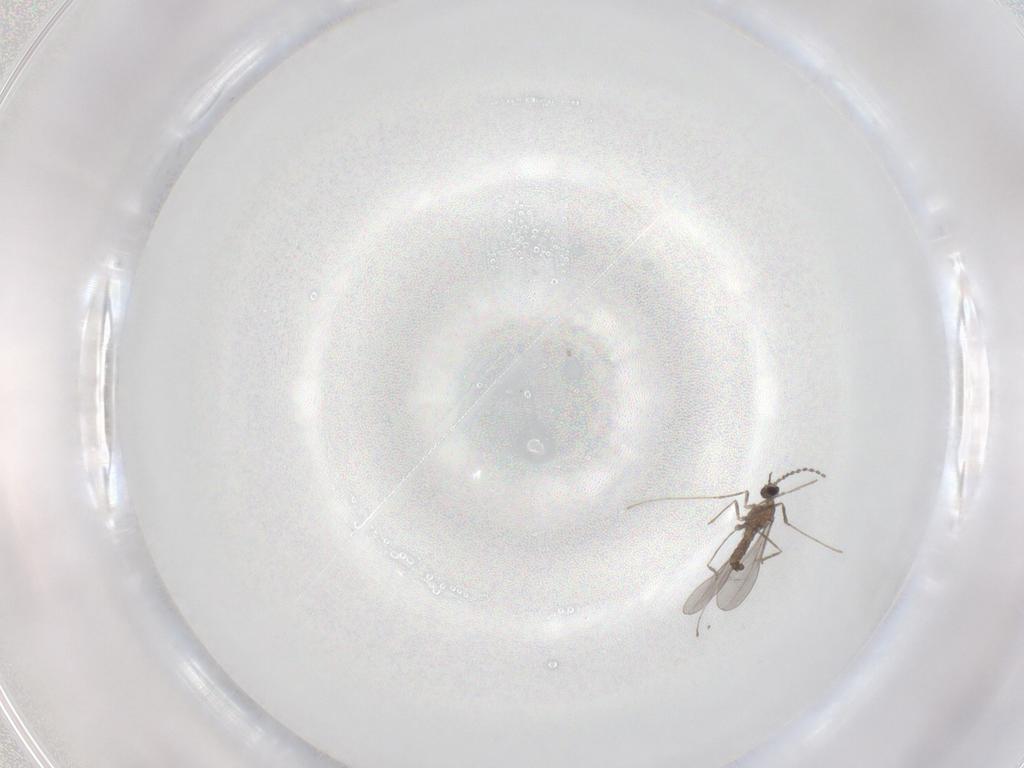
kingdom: Animalia
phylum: Arthropoda
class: Insecta
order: Diptera
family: Cecidomyiidae
